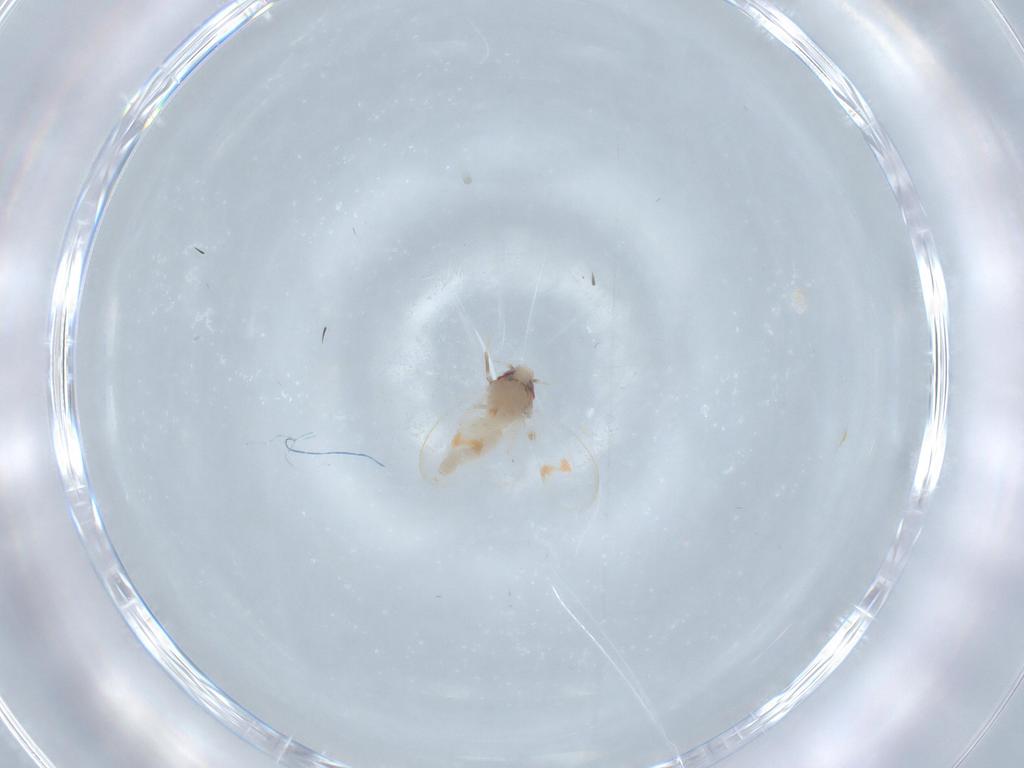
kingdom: Animalia
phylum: Arthropoda
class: Insecta
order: Hemiptera
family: Aleyrodidae
